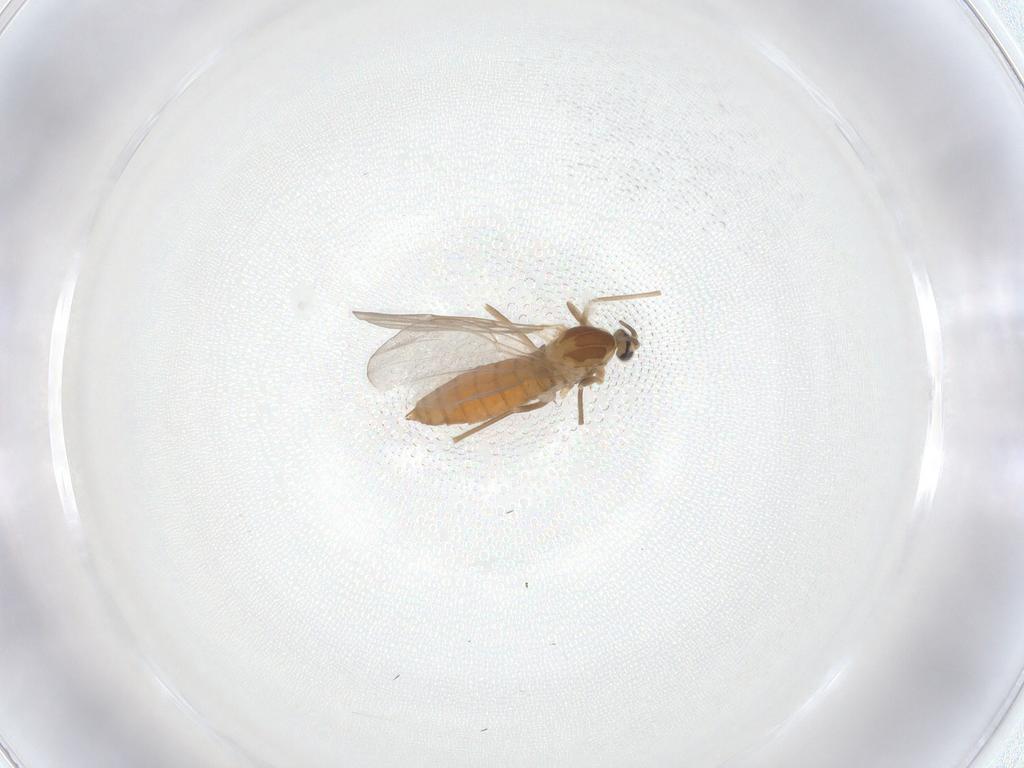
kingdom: Animalia
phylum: Arthropoda
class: Insecta
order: Diptera
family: Cecidomyiidae
